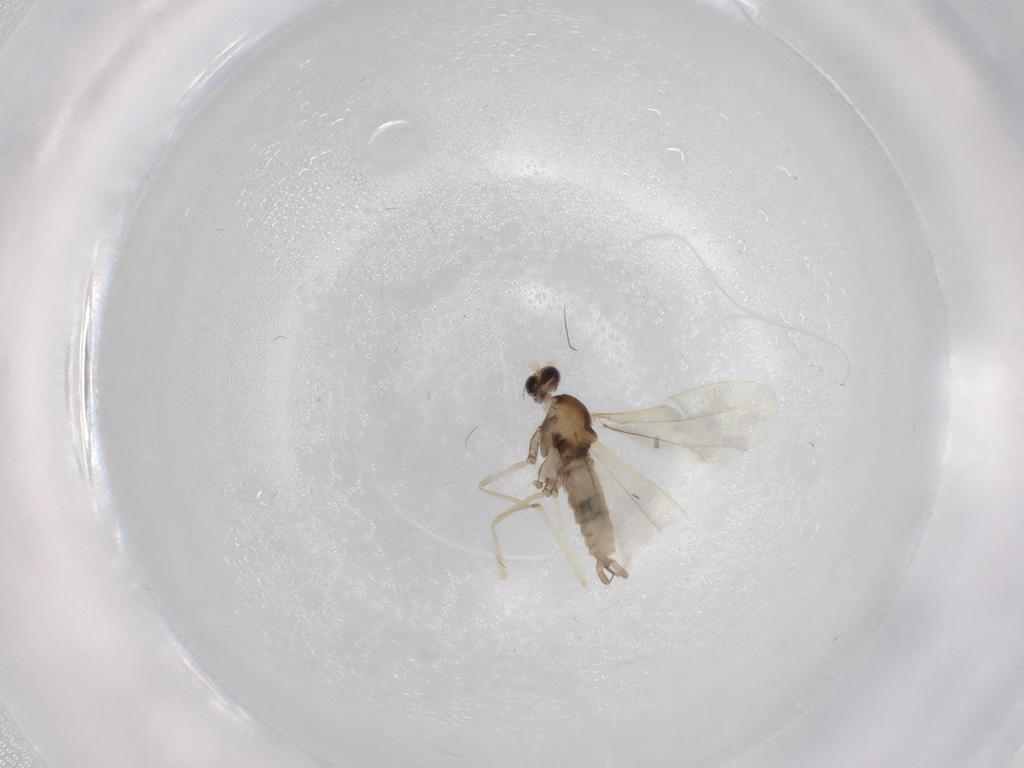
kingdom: Animalia
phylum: Arthropoda
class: Insecta
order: Diptera
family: Cecidomyiidae
